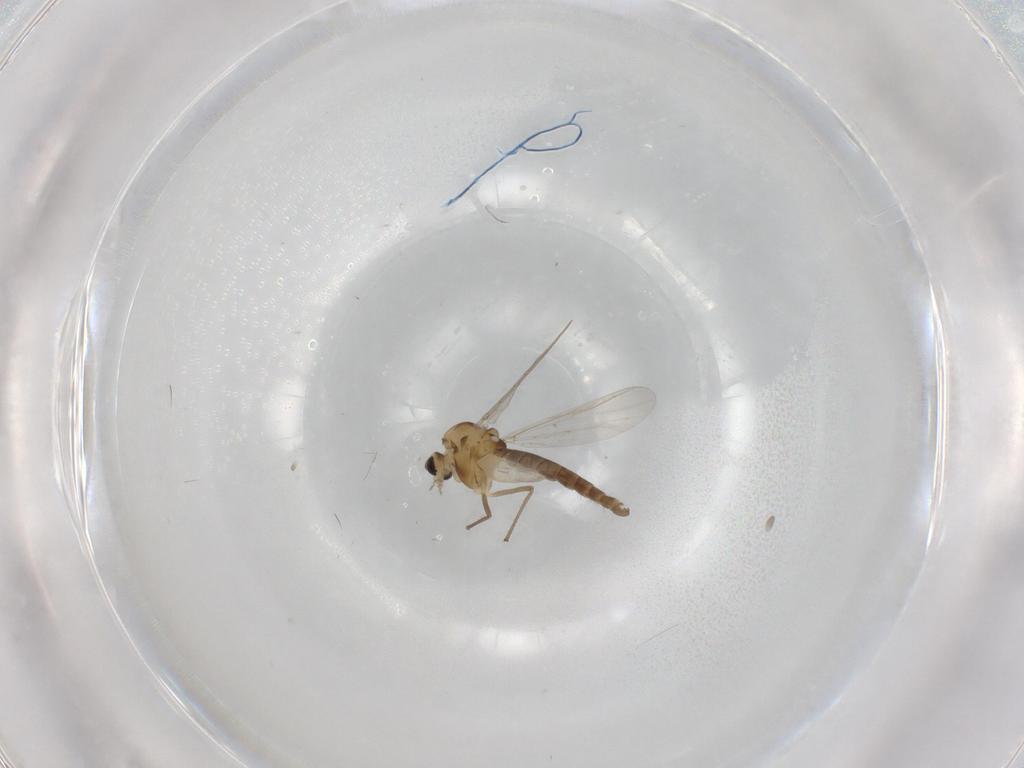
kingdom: Animalia
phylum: Arthropoda
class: Insecta
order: Diptera
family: Chironomidae
